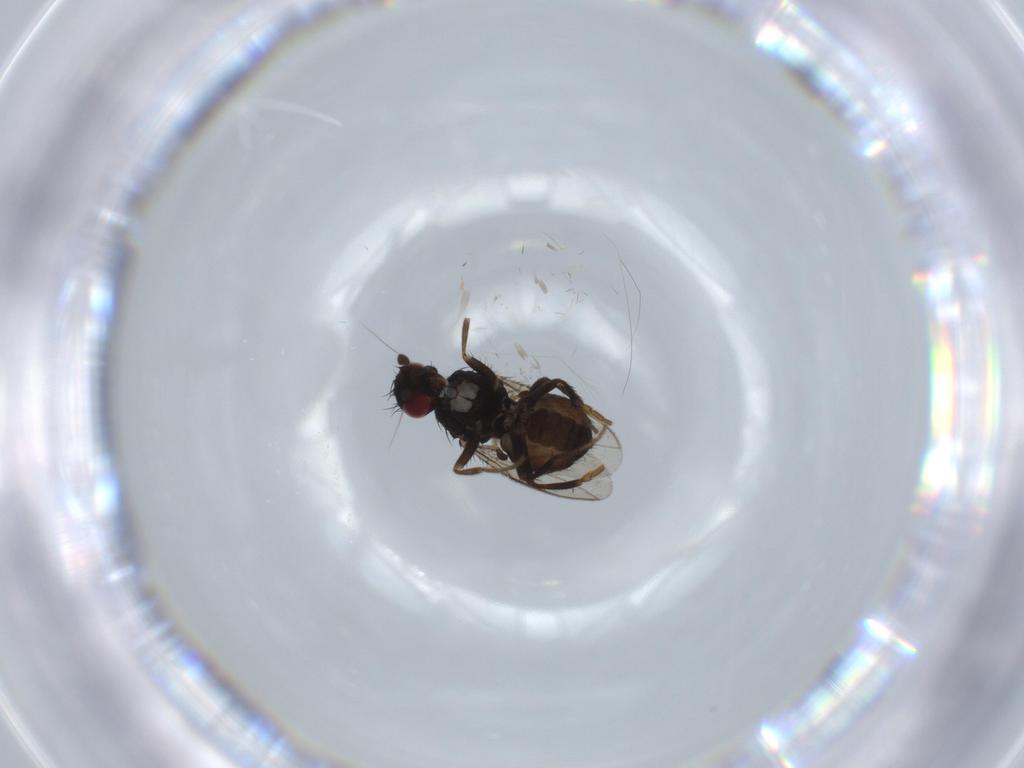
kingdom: Animalia
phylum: Arthropoda
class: Insecta
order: Diptera
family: Sphaeroceridae
